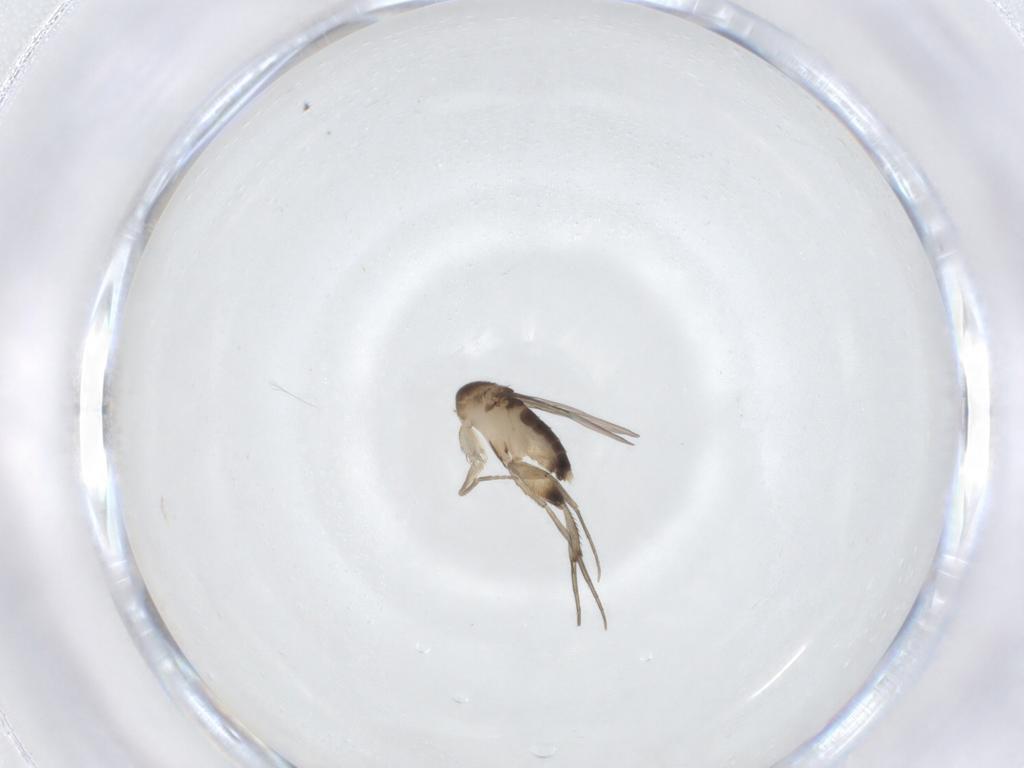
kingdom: Animalia
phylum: Arthropoda
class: Insecta
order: Diptera
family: Phoridae
